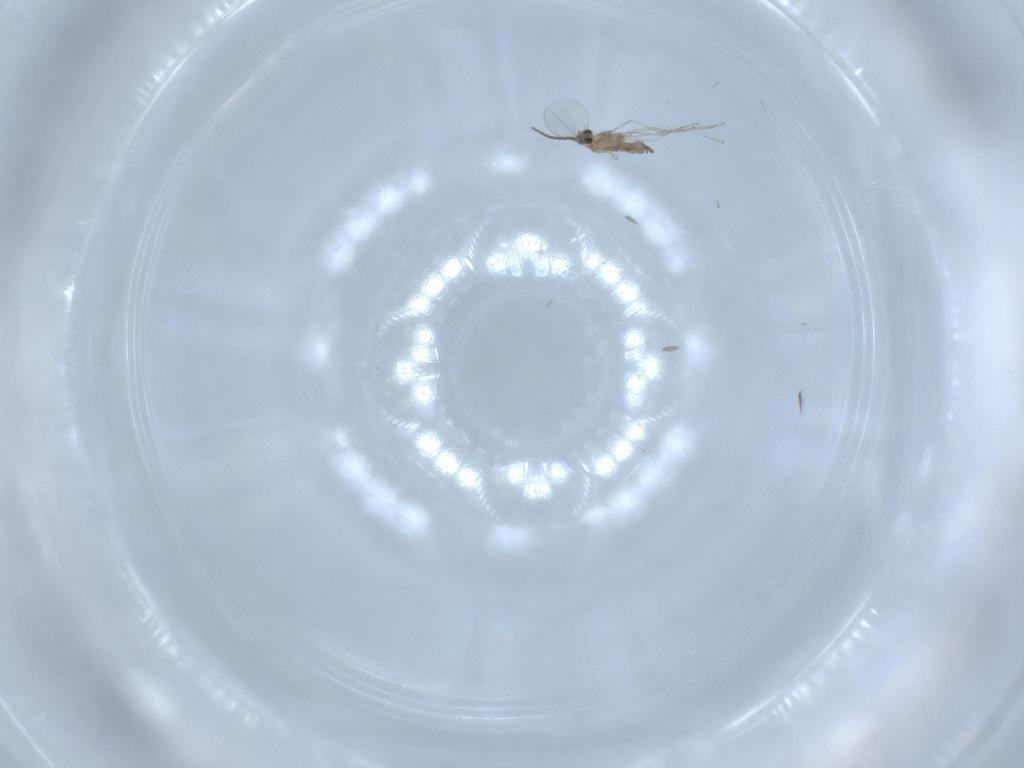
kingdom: Animalia
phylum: Arthropoda
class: Insecta
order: Diptera
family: Cecidomyiidae
